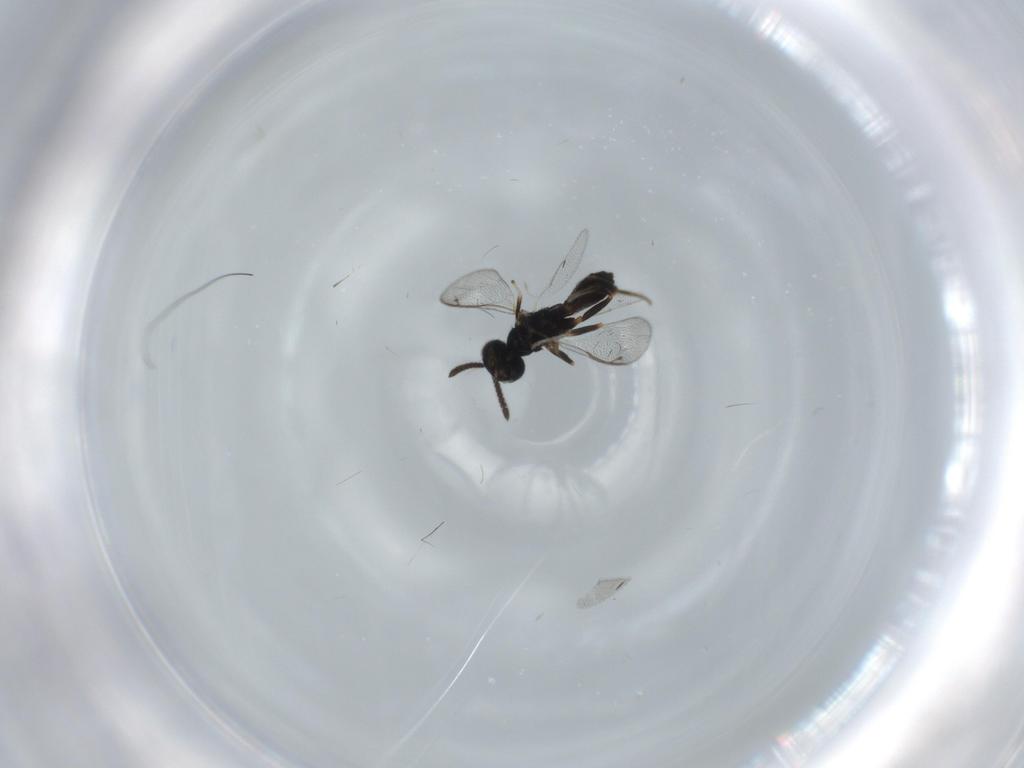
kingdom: Animalia
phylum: Arthropoda
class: Insecta
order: Hymenoptera
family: Cleonyminae
